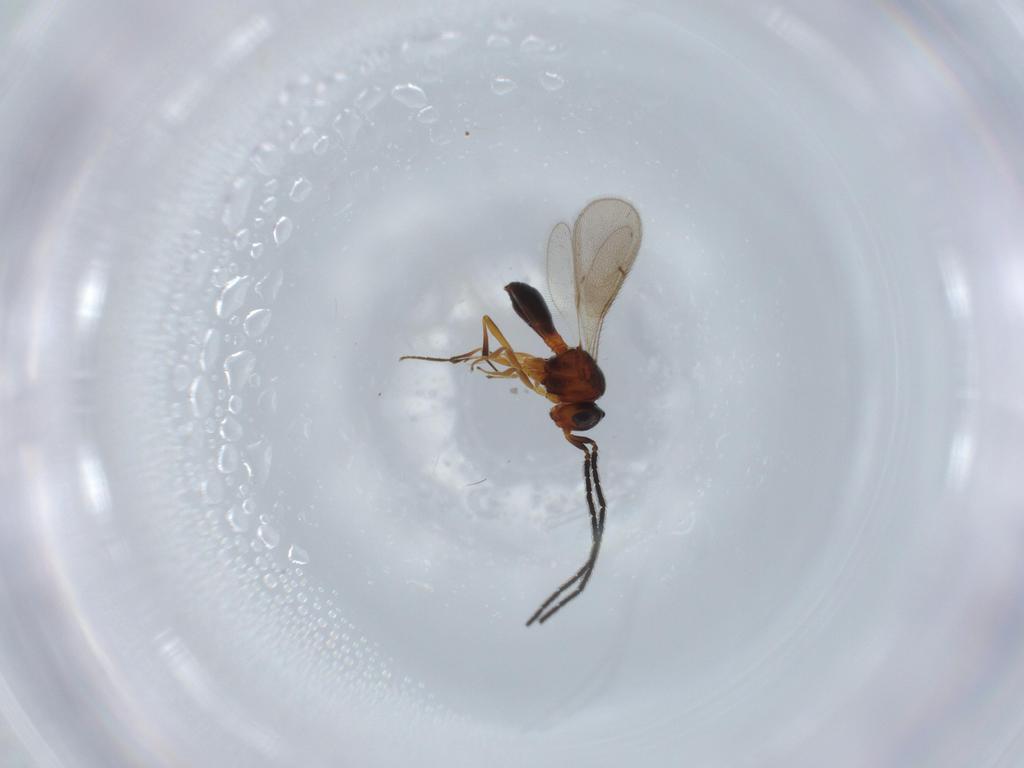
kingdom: Animalia
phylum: Arthropoda
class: Insecta
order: Hymenoptera
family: Scelionidae
